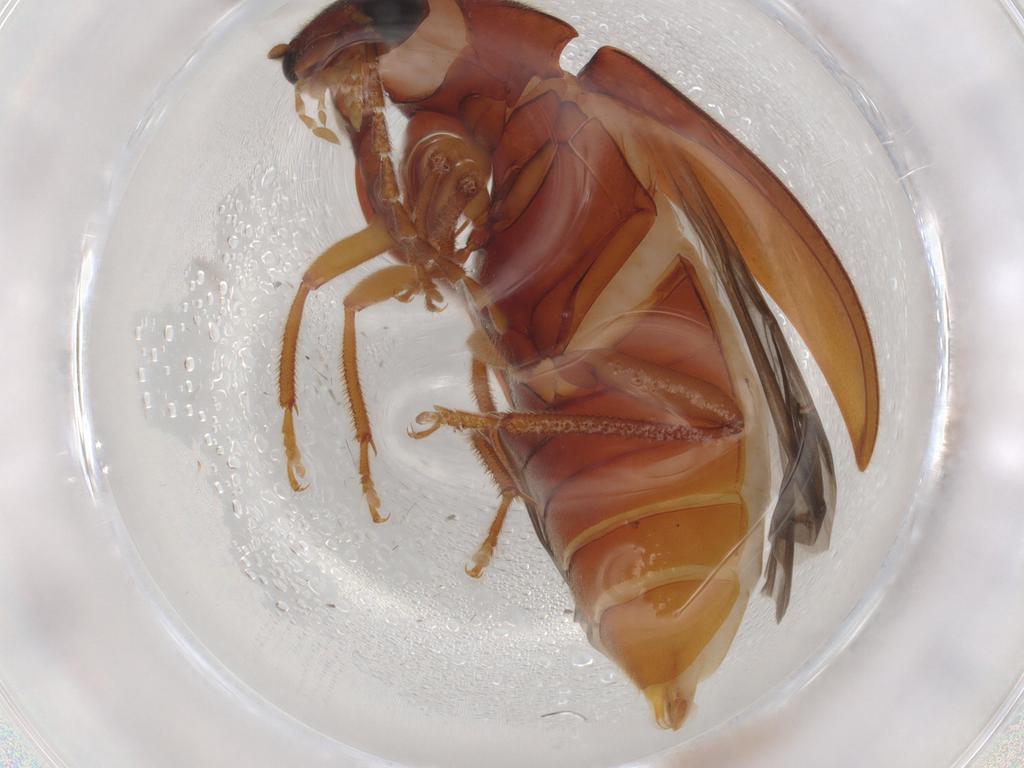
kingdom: Animalia
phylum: Arthropoda
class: Insecta
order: Coleoptera
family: Ptilodactylidae
